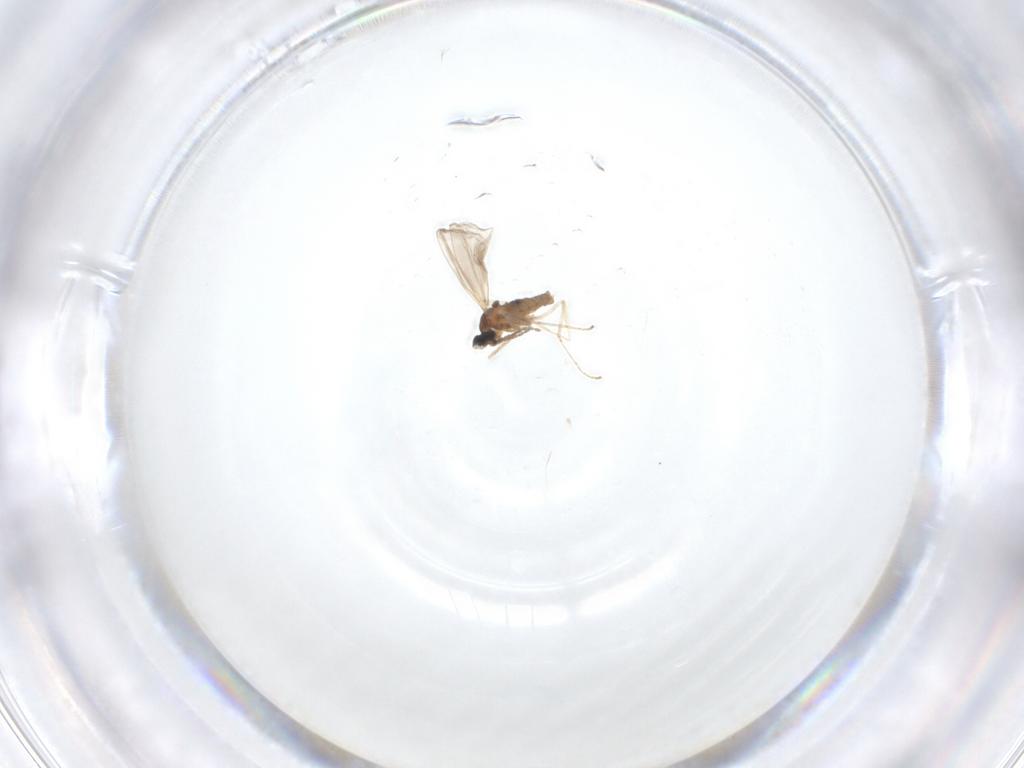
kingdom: Animalia
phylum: Arthropoda
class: Insecta
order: Diptera
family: Cecidomyiidae
